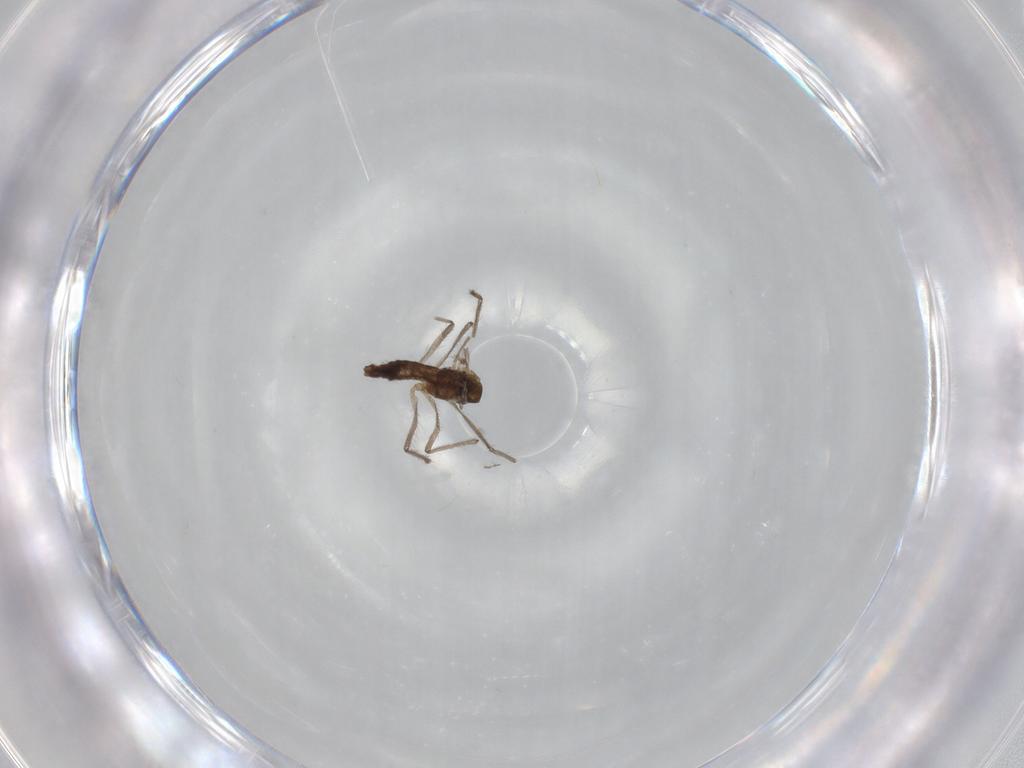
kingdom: Animalia
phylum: Arthropoda
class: Insecta
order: Diptera
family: Chironomidae
